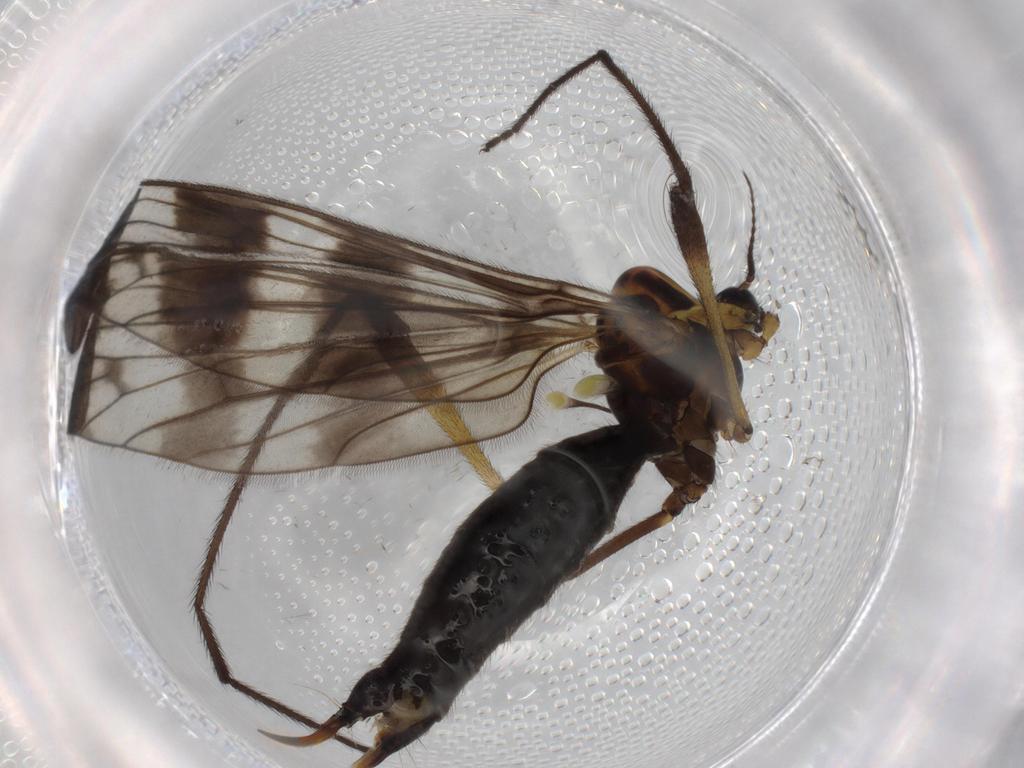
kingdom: Animalia
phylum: Arthropoda
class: Insecta
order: Diptera
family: Limoniidae
